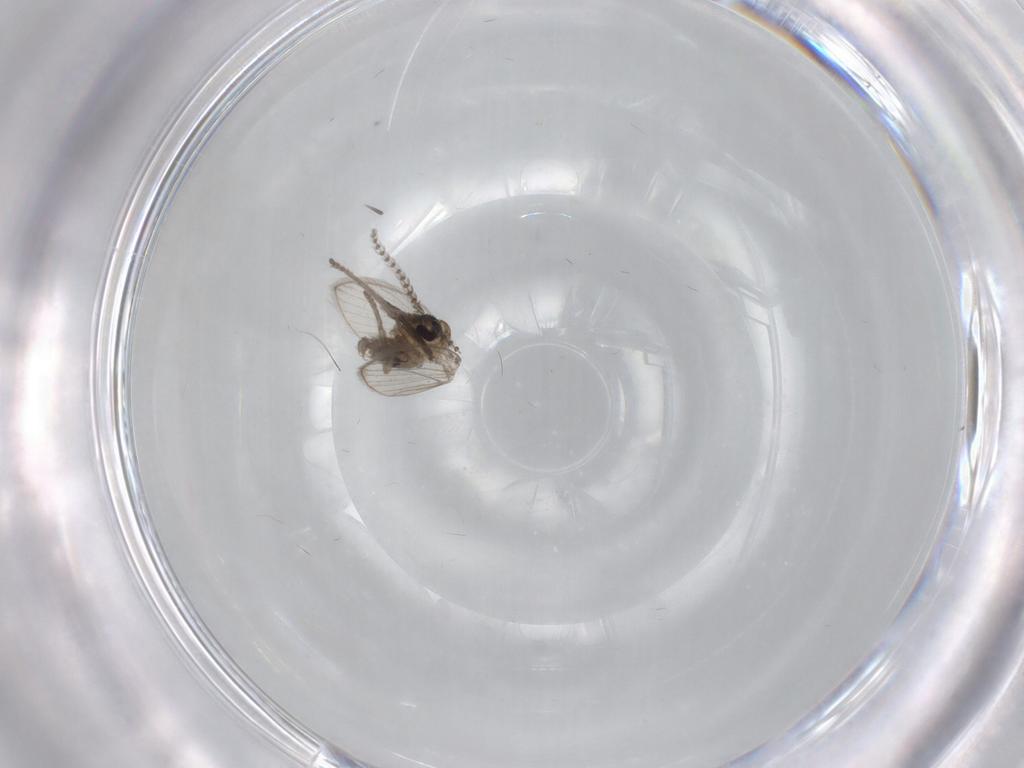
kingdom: Animalia
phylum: Arthropoda
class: Insecta
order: Diptera
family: Psychodidae
